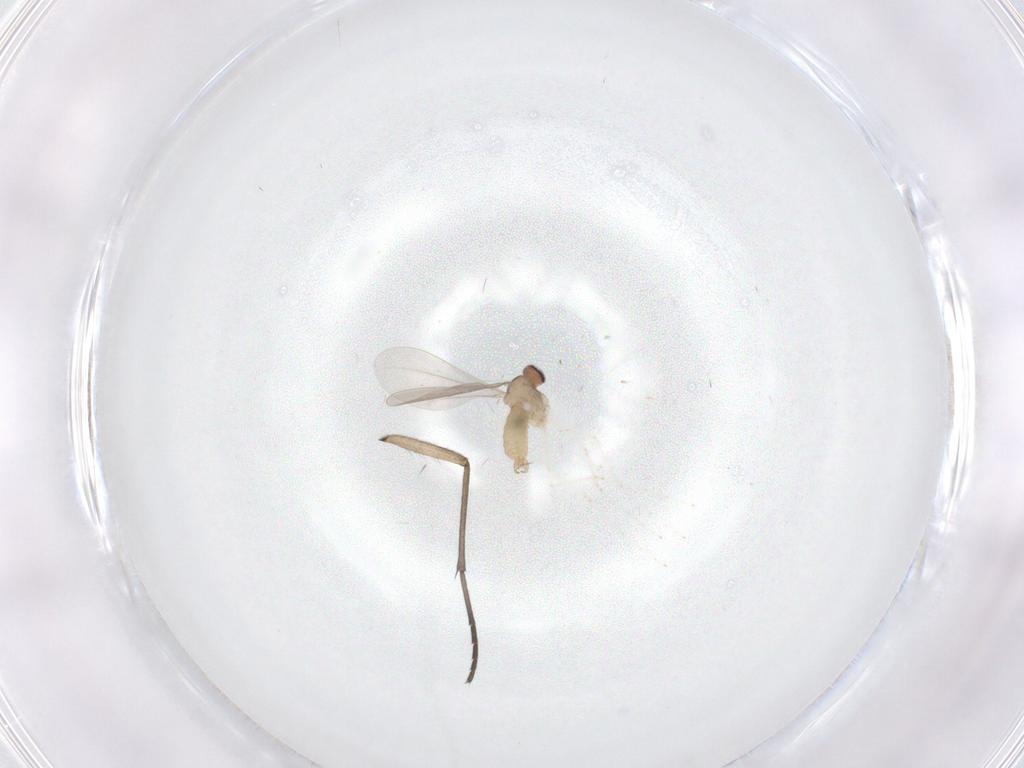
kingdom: Animalia
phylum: Arthropoda
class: Insecta
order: Diptera
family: Cecidomyiidae
